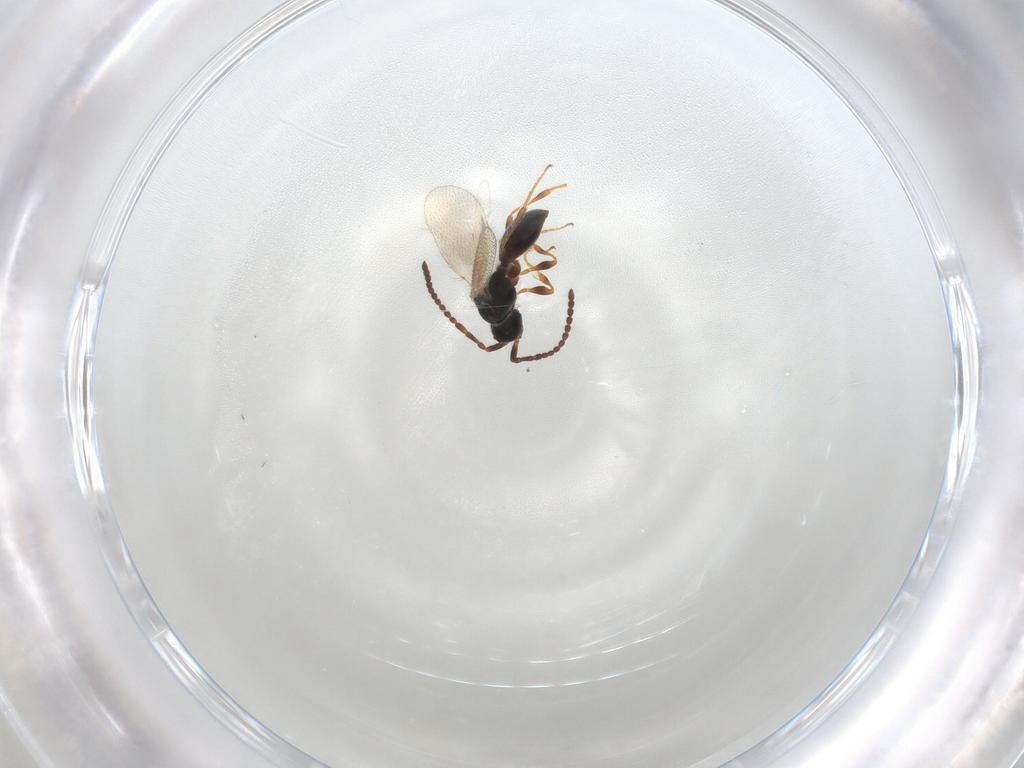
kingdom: Animalia
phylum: Arthropoda
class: Insecta
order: Hymenoptera
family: Diapriidae
